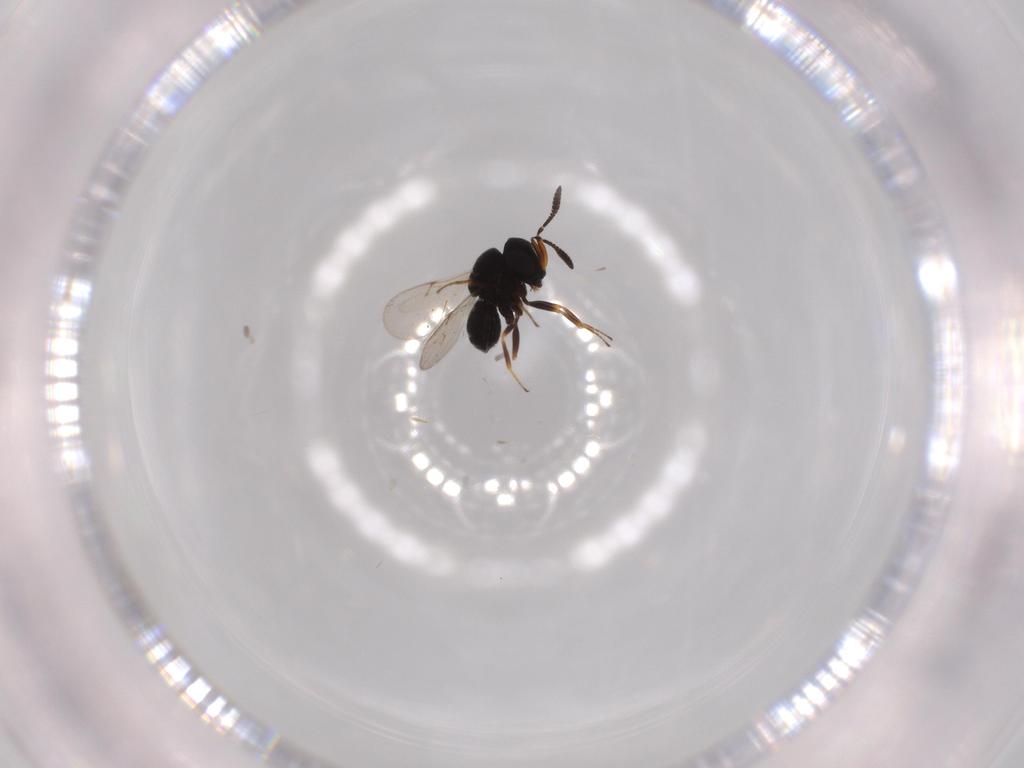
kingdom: Animalia
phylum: Arthropoda
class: Insecta
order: Hymenoptera
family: Scelionidae
